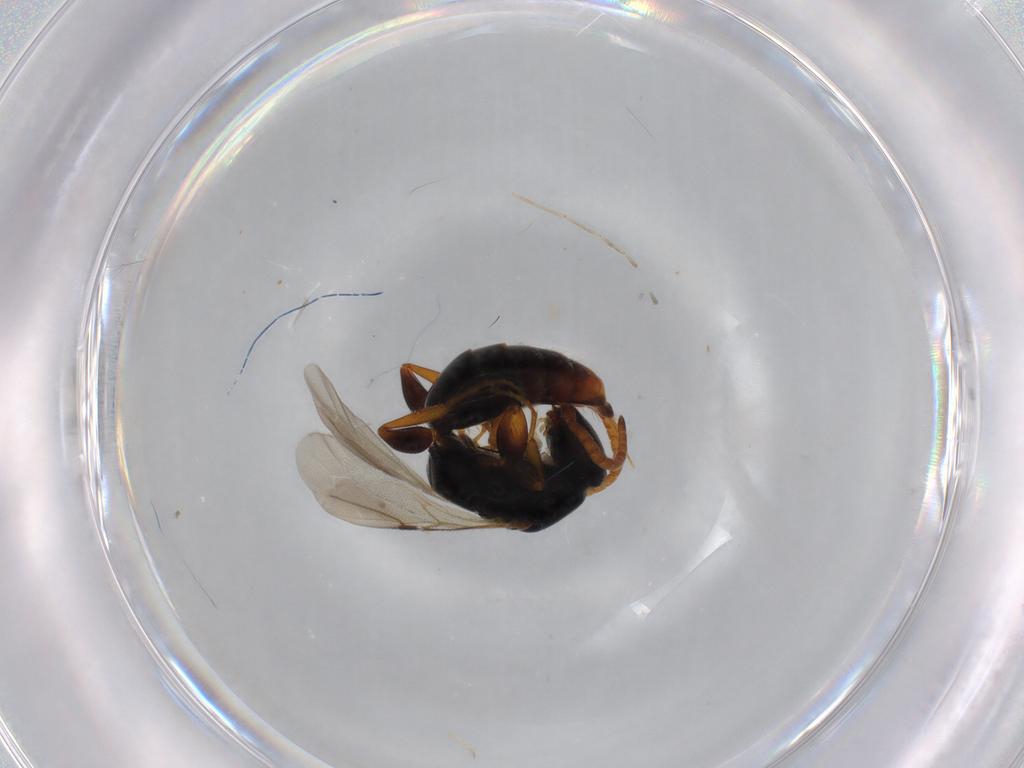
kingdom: Animalia
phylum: Arthropoda
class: Insecta
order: Hymenoptera
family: Bethylidae
